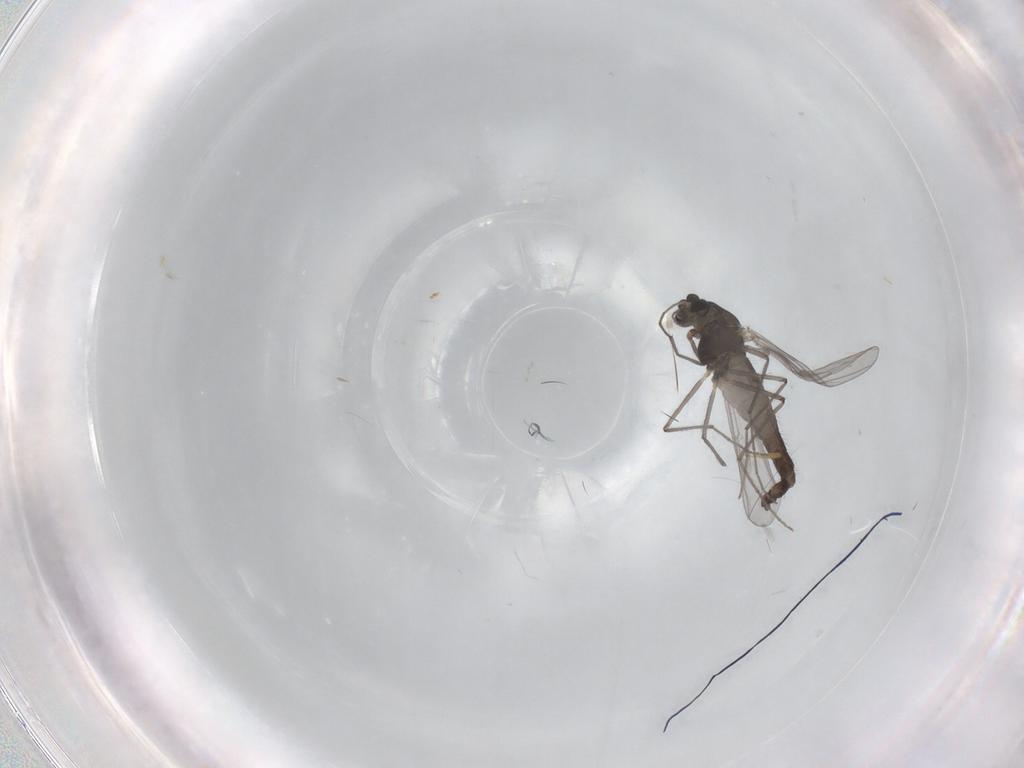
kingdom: Animalia
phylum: Arthropoda
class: Insecta
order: Diptera
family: Chironomidae
